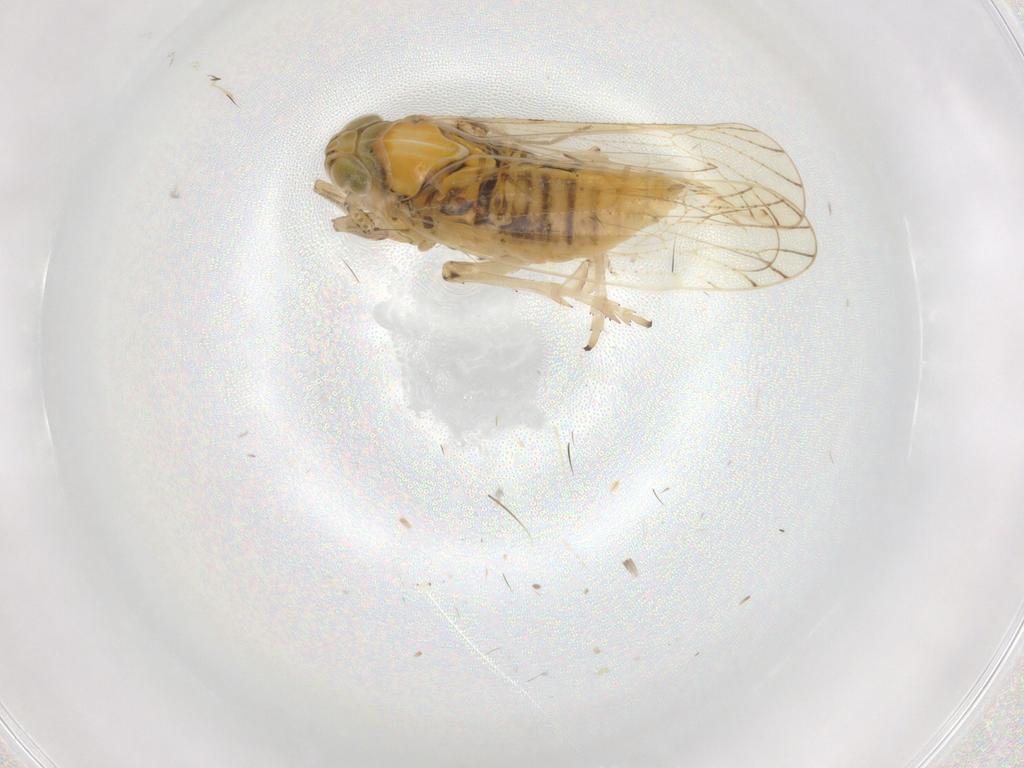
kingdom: Animalia
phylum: Arthropoda
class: Insecta
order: Hemiptera
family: Delphacidae
